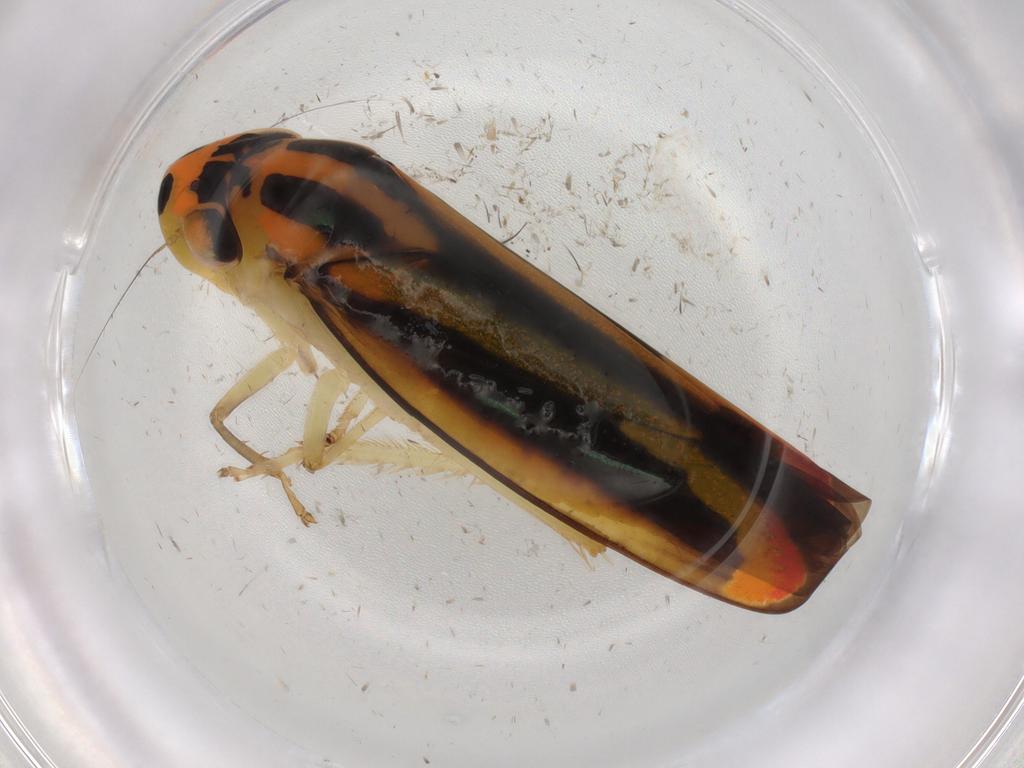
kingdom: Animalia
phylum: Arthropoda
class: Insecta
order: Hemiptera
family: Cicadellidae
